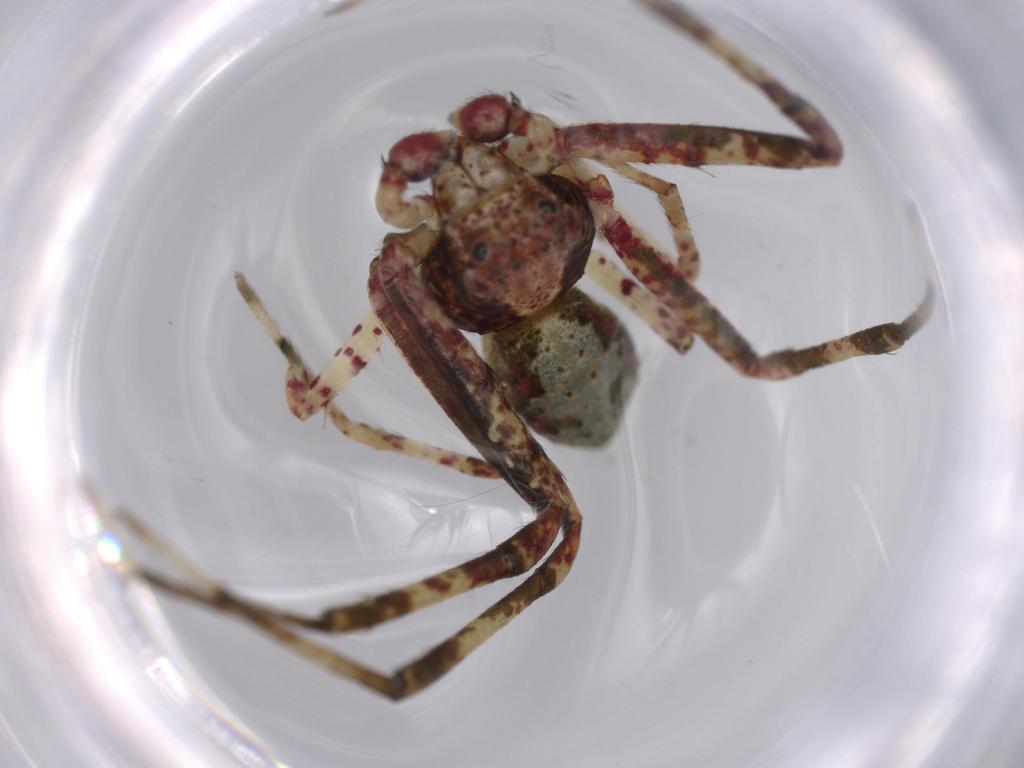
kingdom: Animalia
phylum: Arthropoda
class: Arachnida
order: Araneae
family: Thomisidae
